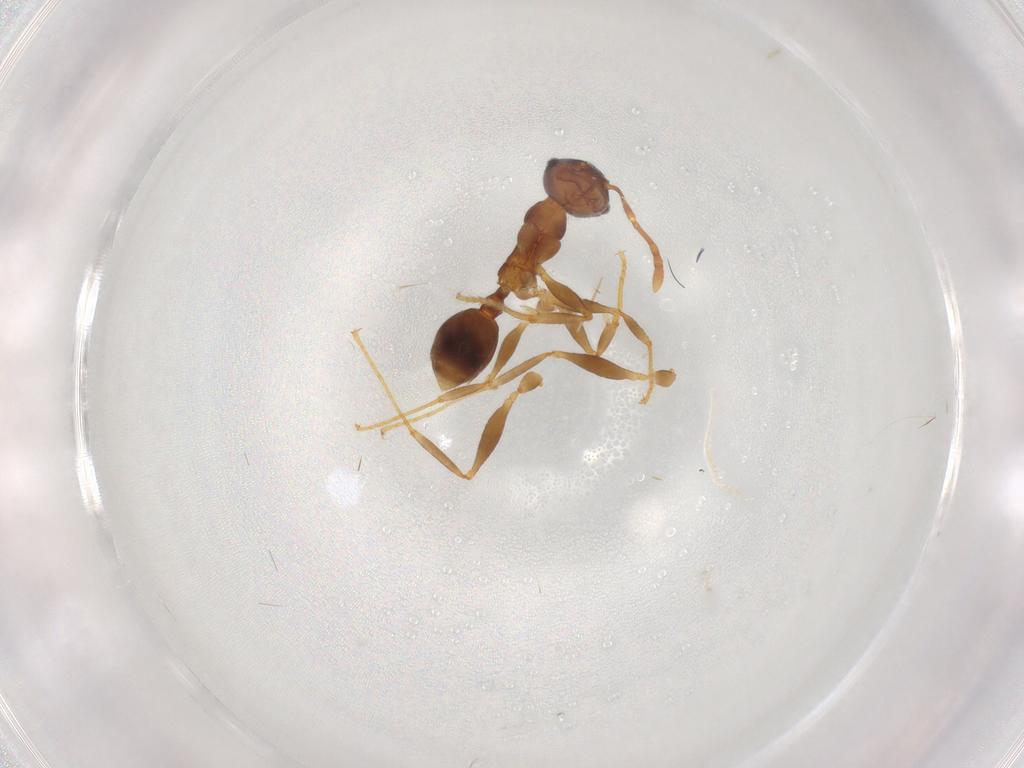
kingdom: Animalia
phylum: Arthropoda
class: Insecta
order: Hymenoptera
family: Formicidae
